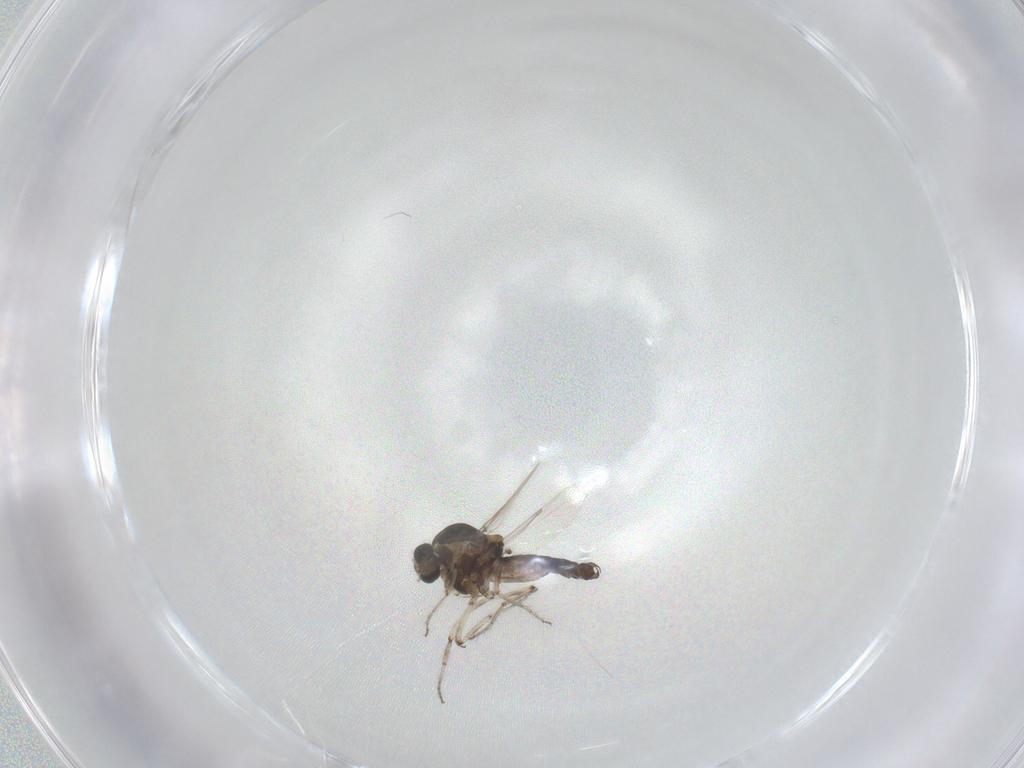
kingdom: Animalia
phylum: Arthropoda
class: Insecta
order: Diptera
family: Ceratopogonidae
